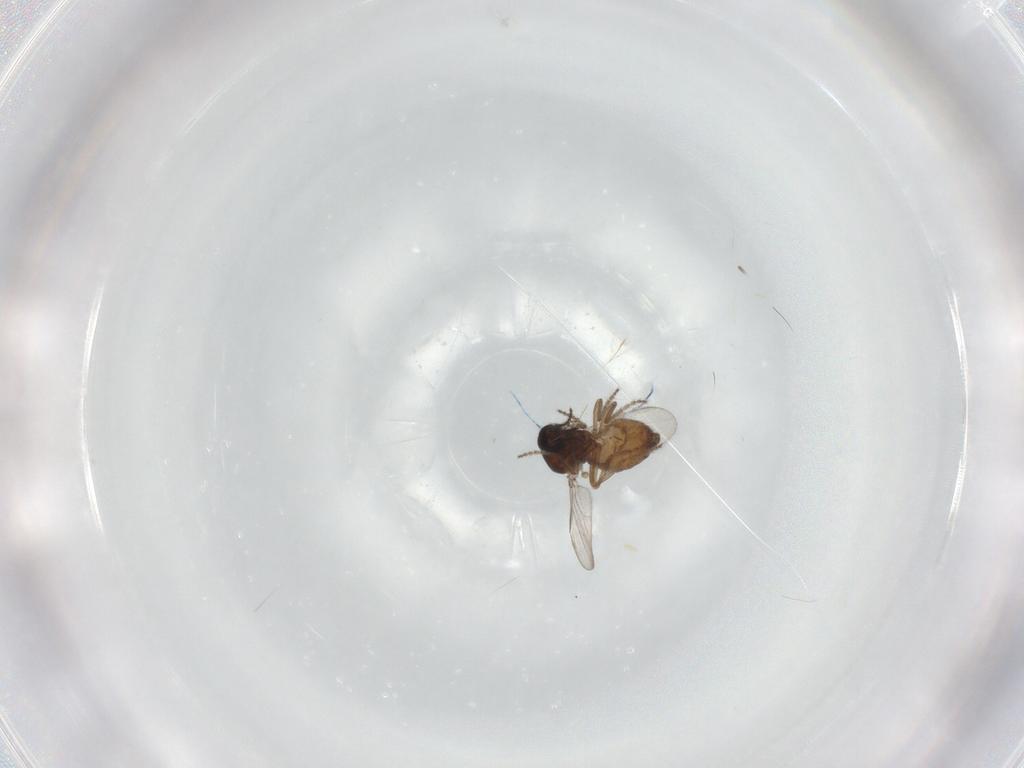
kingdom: Animalia
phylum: Arthropoda
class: Insecta
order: Diptera
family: Ceratopogonidae
